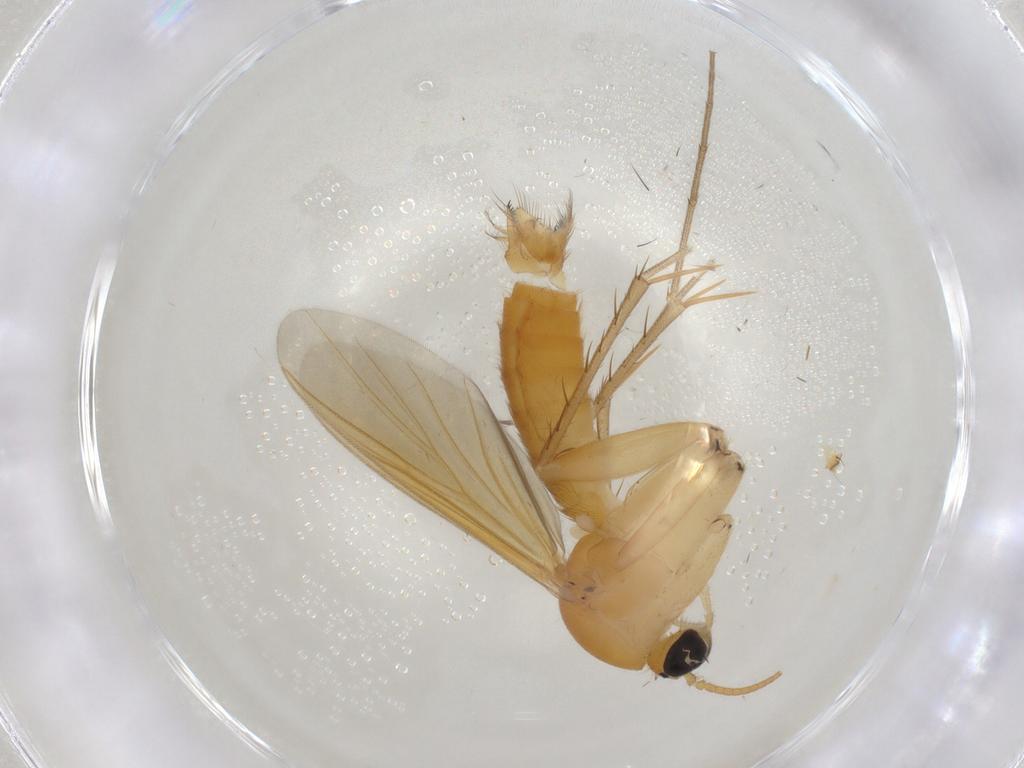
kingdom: Animalia
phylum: Arthropoda
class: Insecta
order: Diptera
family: Mycetophilidae
